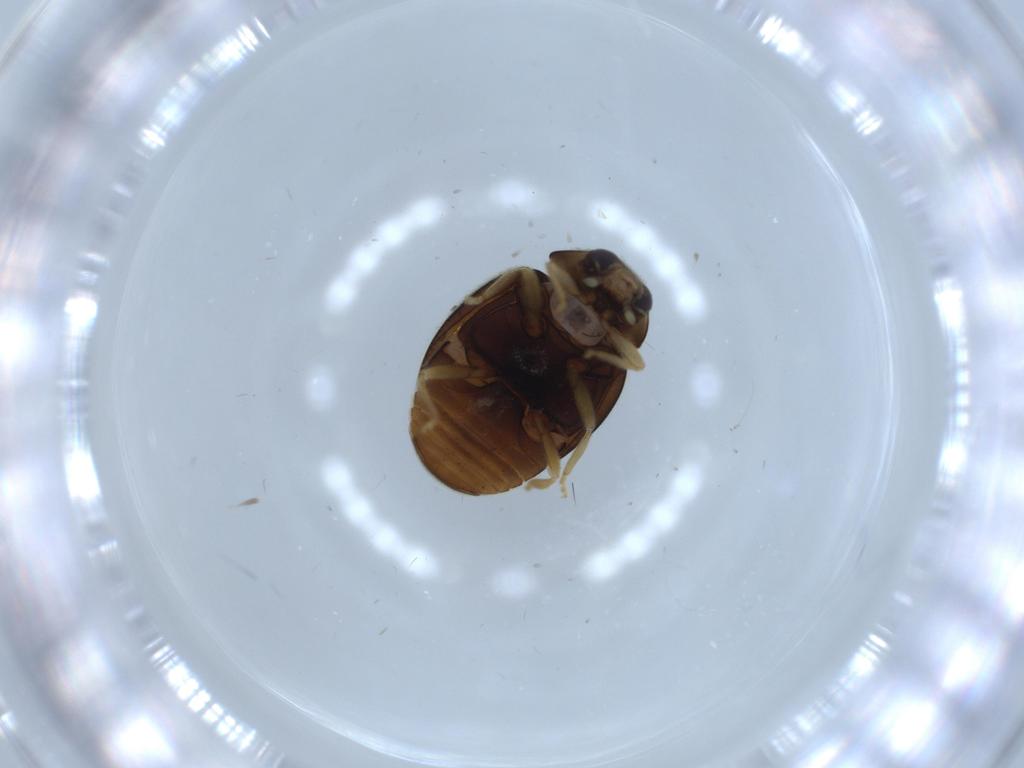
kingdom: Animalia
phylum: Arthropoda
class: Insecta
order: Coleoptera
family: Coccinellidae
